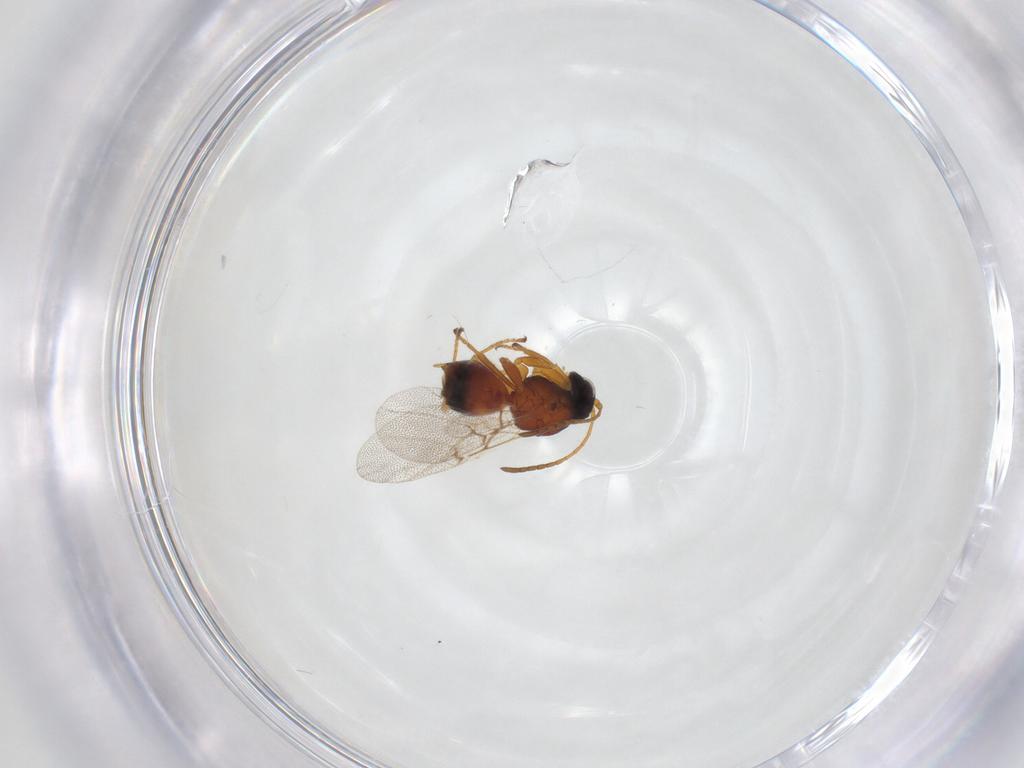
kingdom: Animalia
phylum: Arthropoda
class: Insecta
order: Hymenoptera
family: Cynipidae
